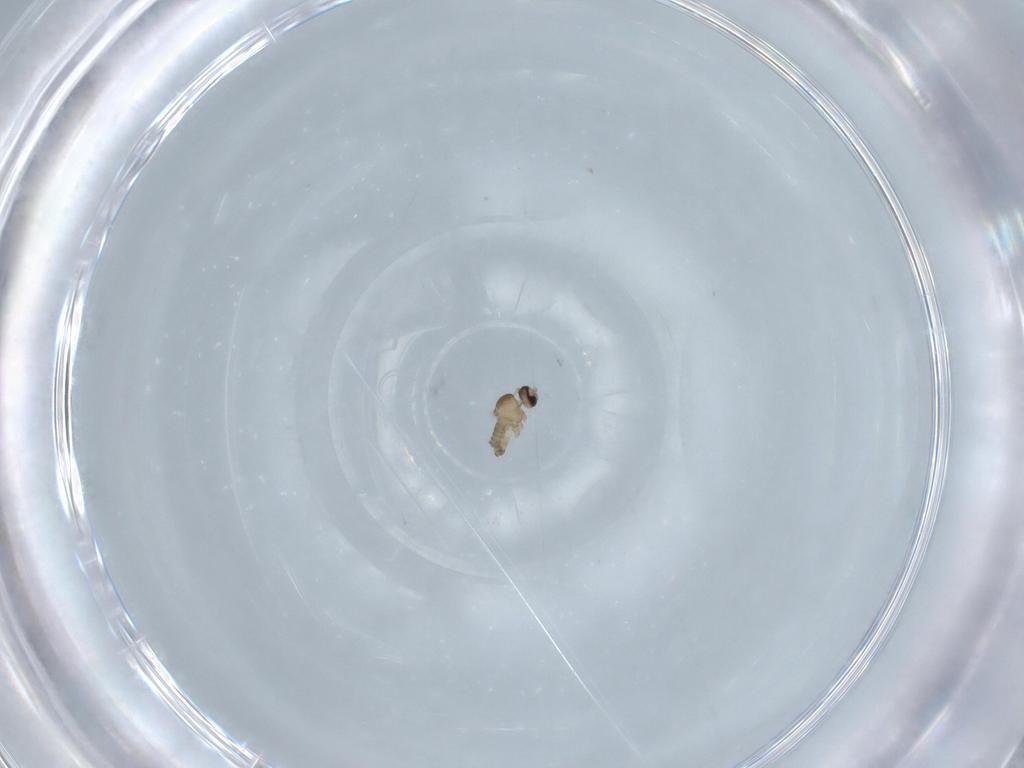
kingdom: Animalia
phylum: Arthropoda
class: Insecta
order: Diptera
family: Phoridae
